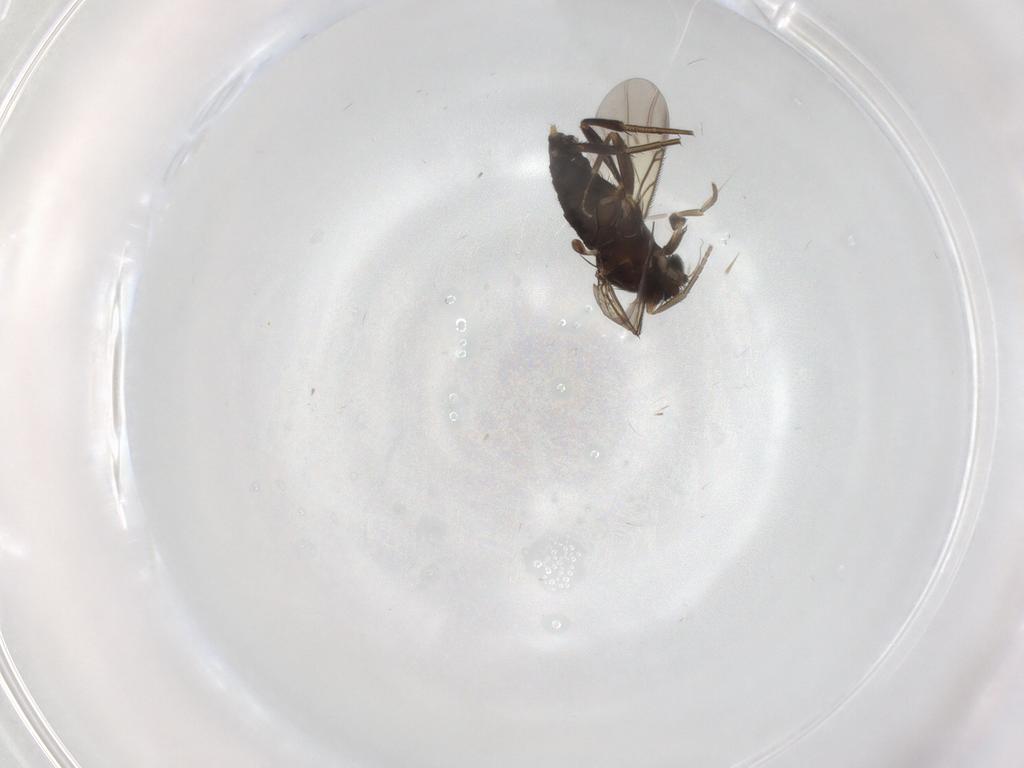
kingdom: Animalia
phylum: Arthropoda
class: Insecta
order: Diptera
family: Phoridae
